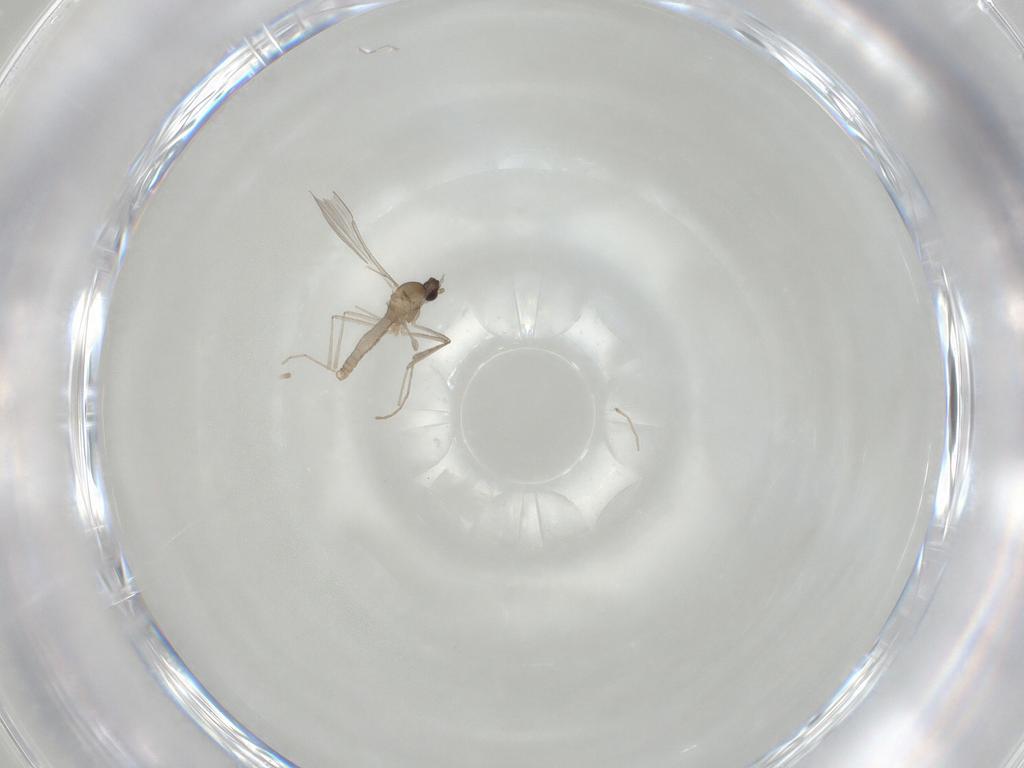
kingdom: Animalia
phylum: Arthropoda
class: Insecta
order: Diptera
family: Chironomidae
